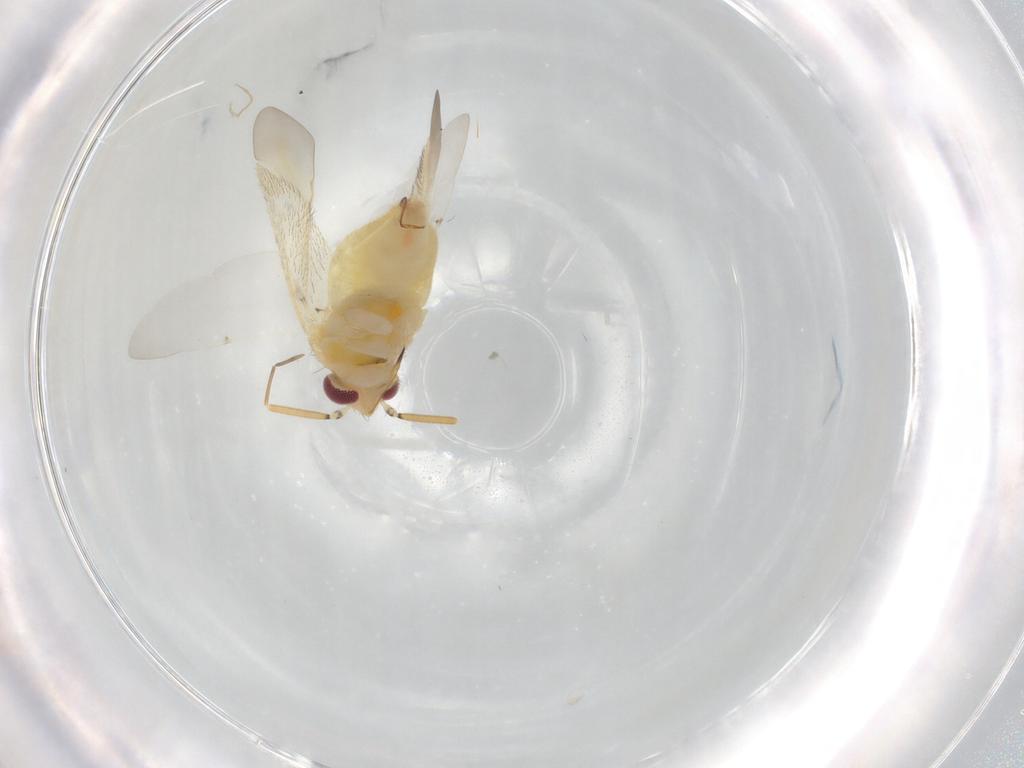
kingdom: Animalia
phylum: Arthropoda
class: Insecta
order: Hemiptera
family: Miridae
